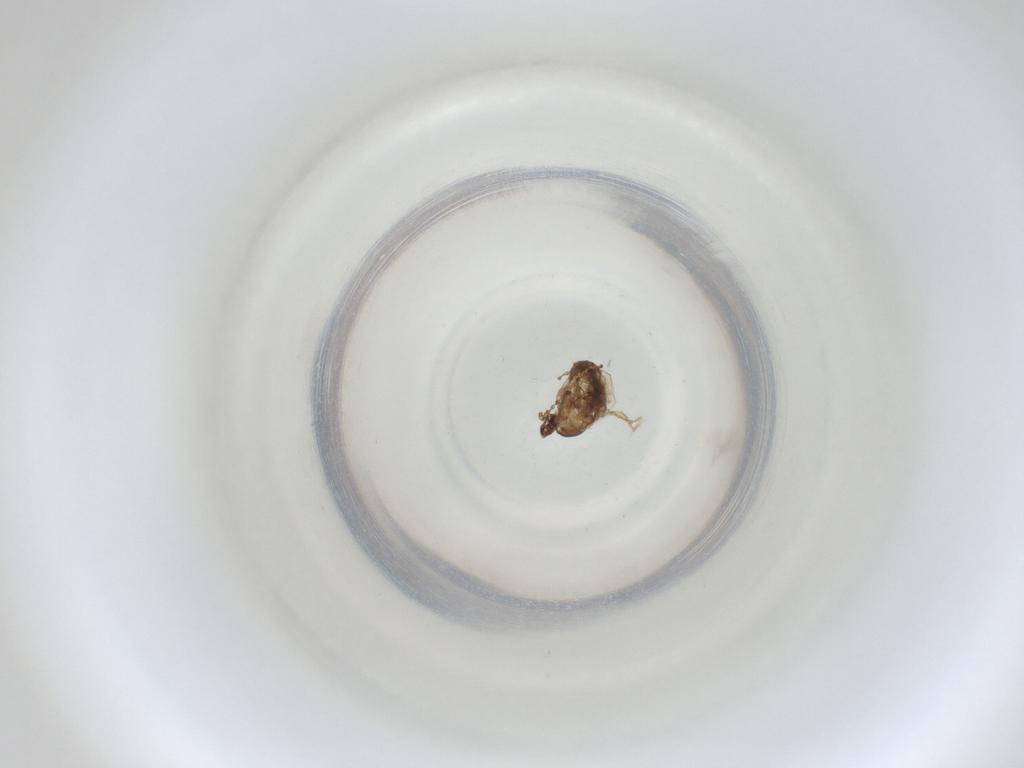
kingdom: Animalia
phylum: Arthropoda
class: Insecta
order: Diptera
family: Cecidomyiidae
